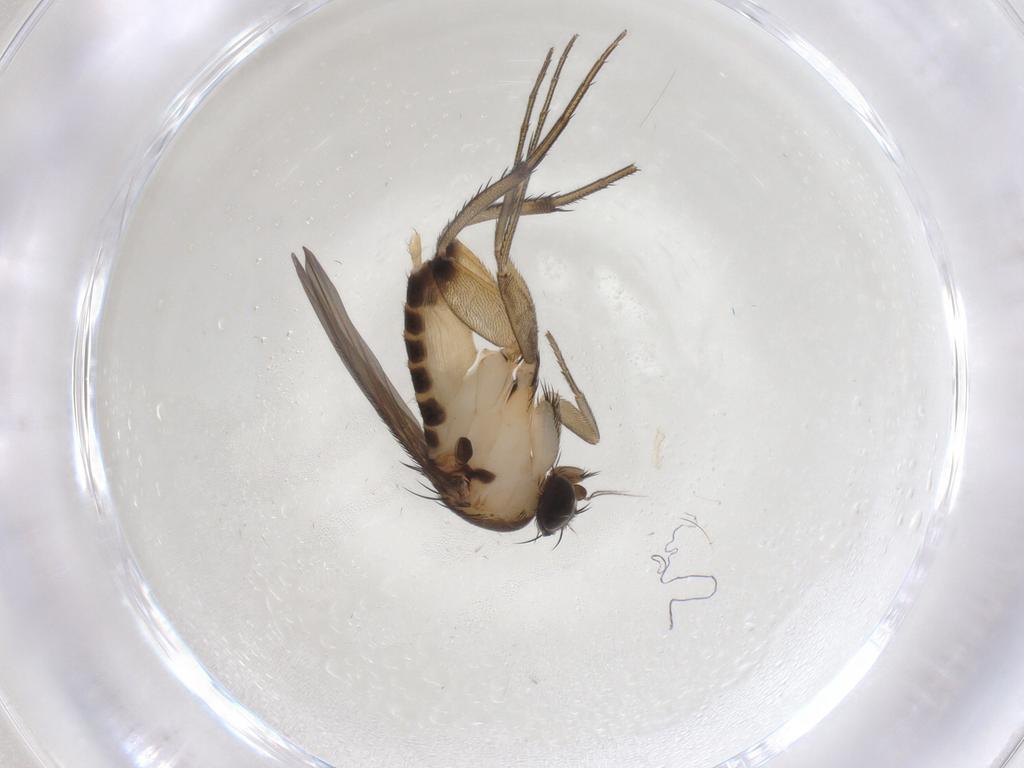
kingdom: Animalia
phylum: Arthropoda
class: Insecta
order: Diptera
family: Phoridae
